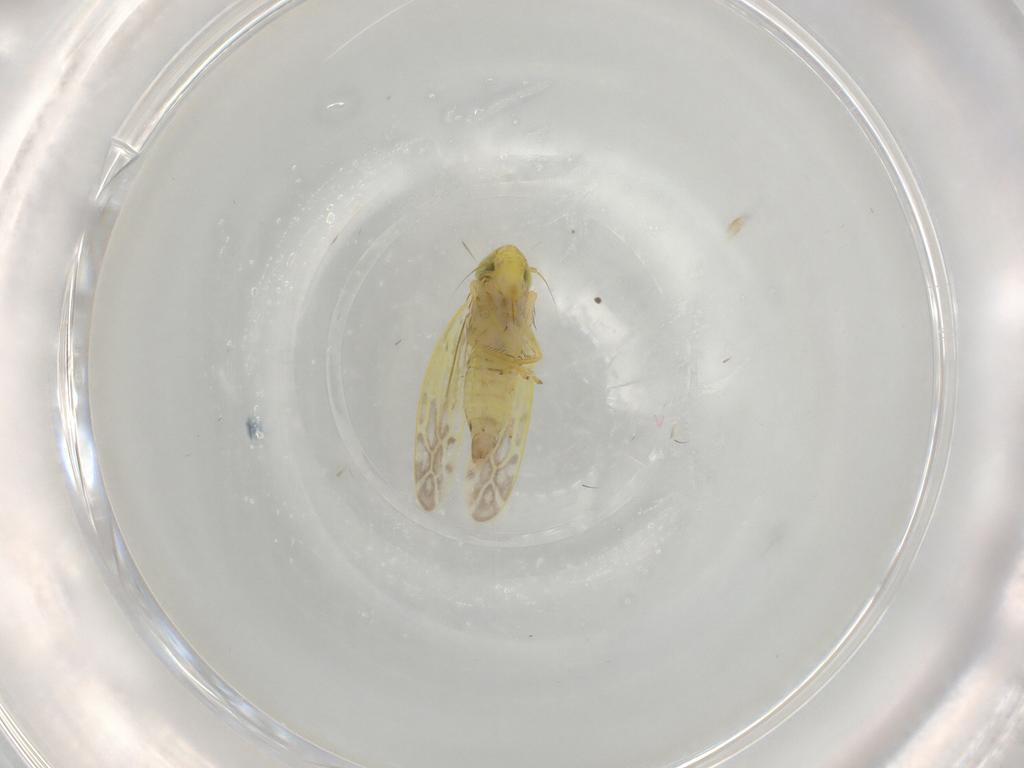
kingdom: Animalia
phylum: Arthropoda
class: Insecta
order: Hemiptera
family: Cicadellidae
